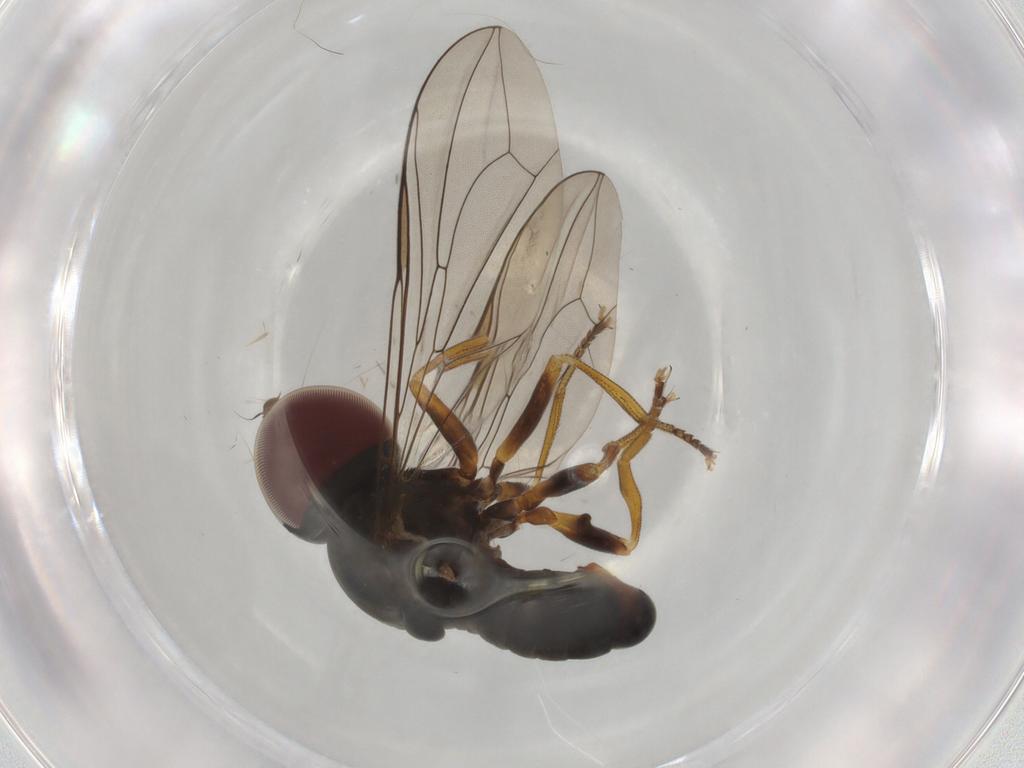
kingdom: Animalia
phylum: Arthropoda
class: Insecta
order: Diptera
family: Pipunculidae
